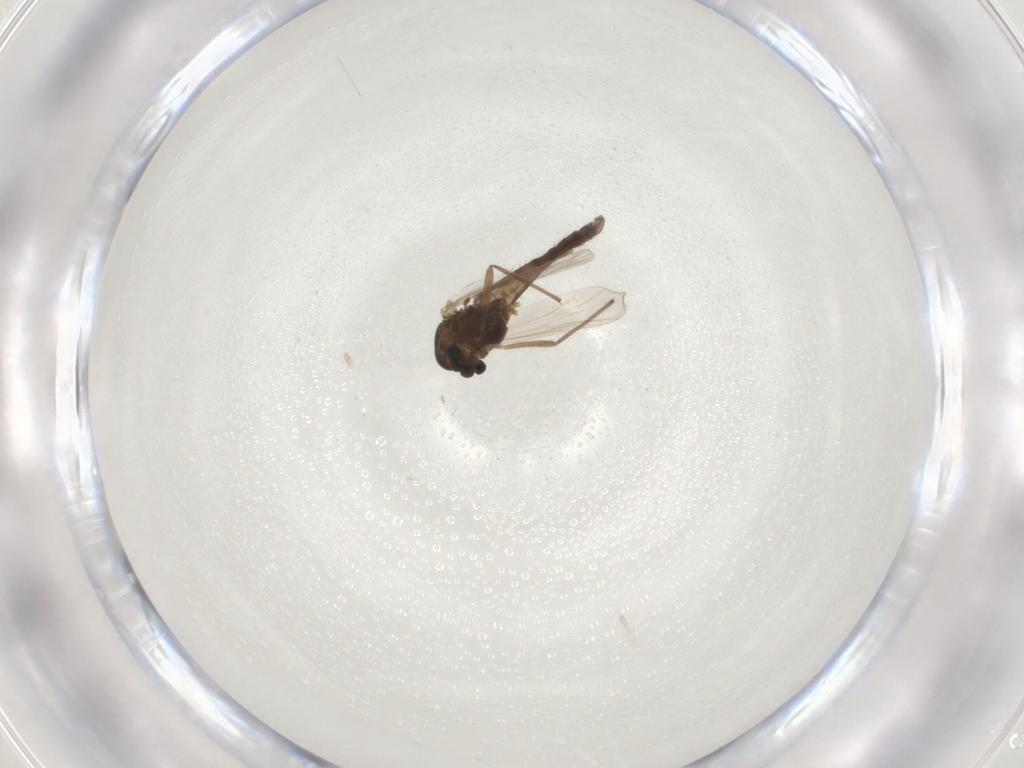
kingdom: Animalia
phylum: Arthropoda
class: Insecta
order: Diptera
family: Chironomidae
